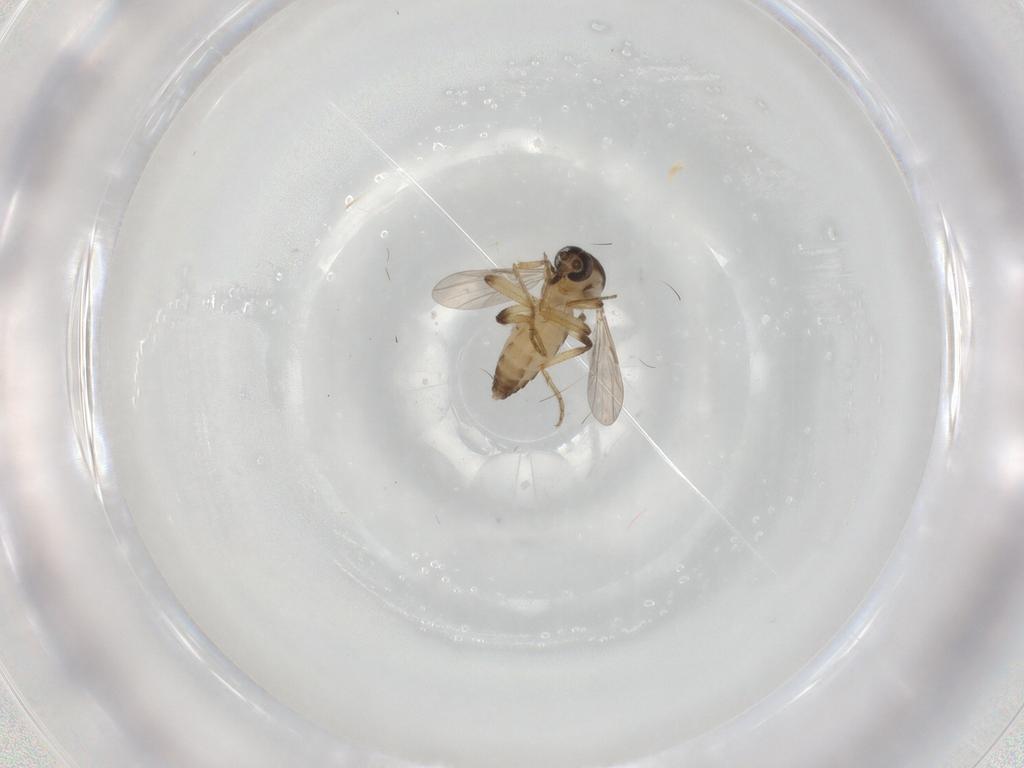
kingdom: Animalia
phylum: Arthropoda
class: Insecta
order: Diptera
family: Ceratopogonidae
